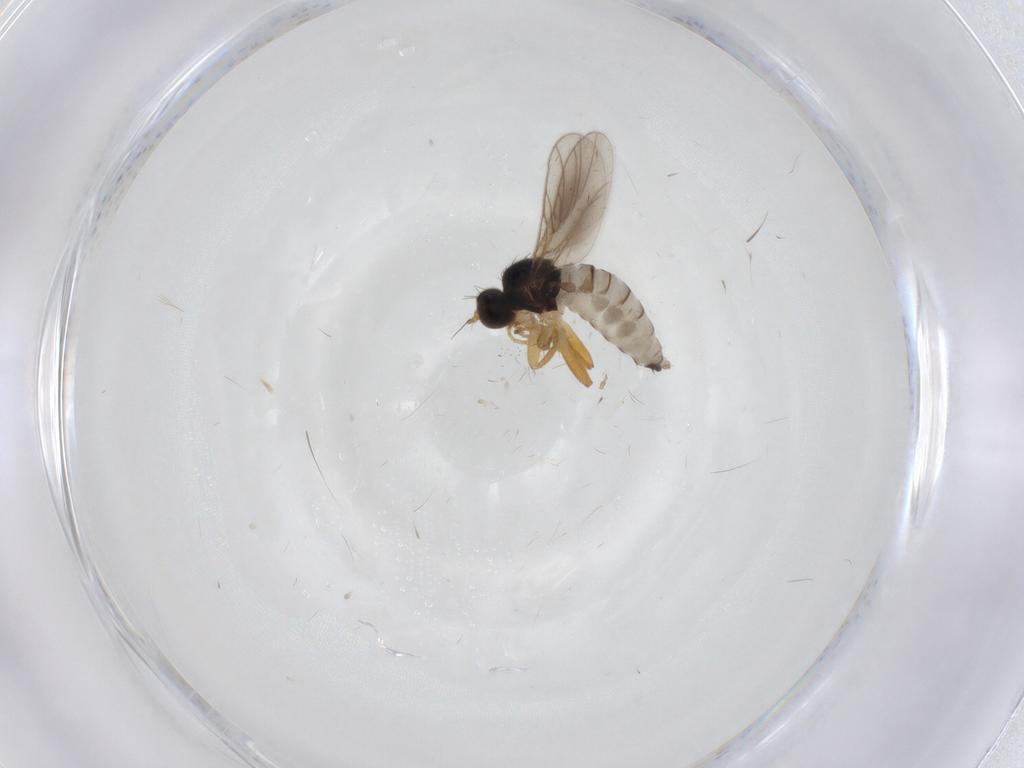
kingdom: Animalia
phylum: Arthropoda
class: Insecta
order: Diptera
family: Hybotidae
